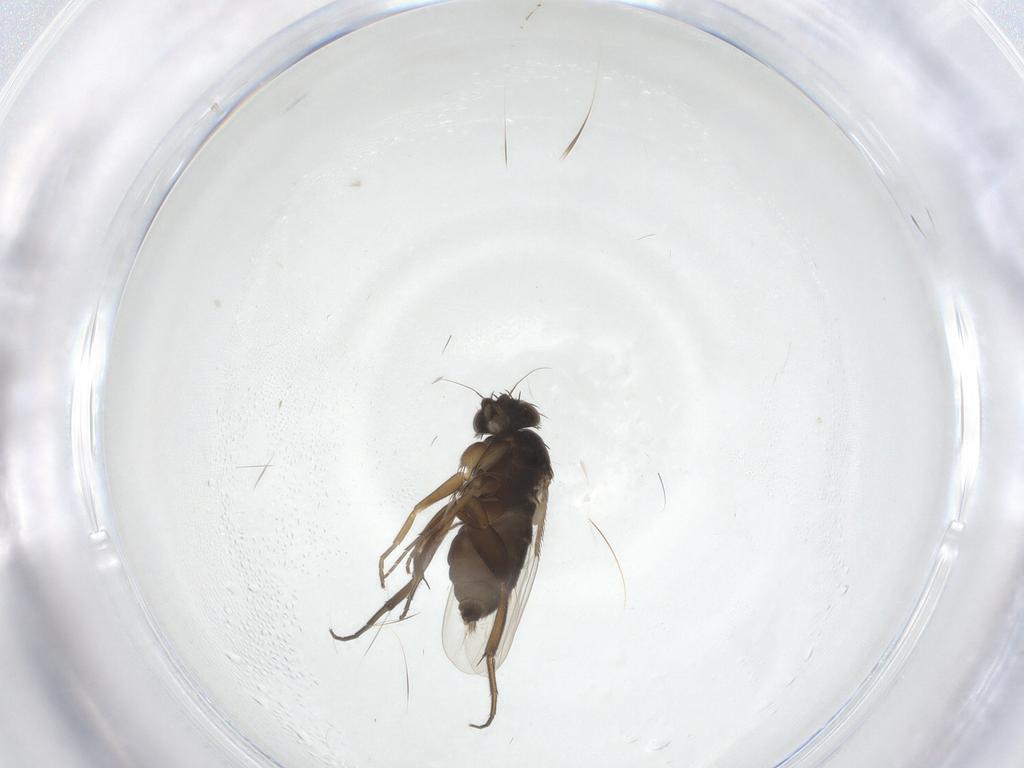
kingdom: Animalia
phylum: Arthropoda
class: Insecta
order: Diptera
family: Phoridae
